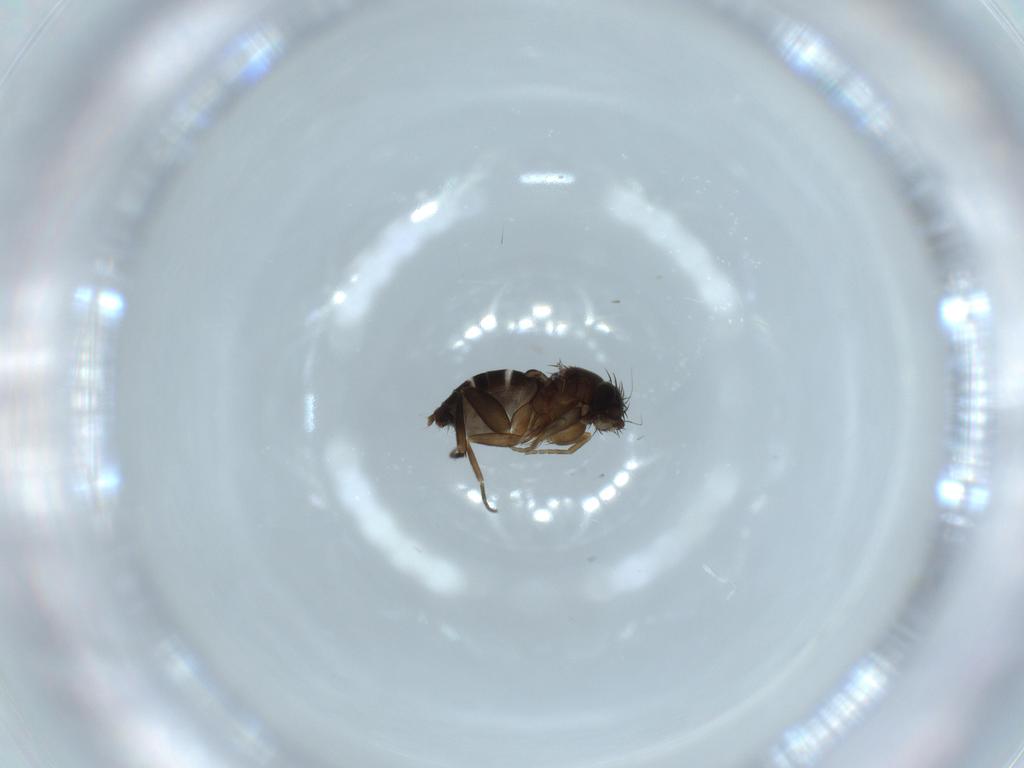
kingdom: Animalia
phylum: Arthropoda
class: Insecta
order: Diptera
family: Phoridae
